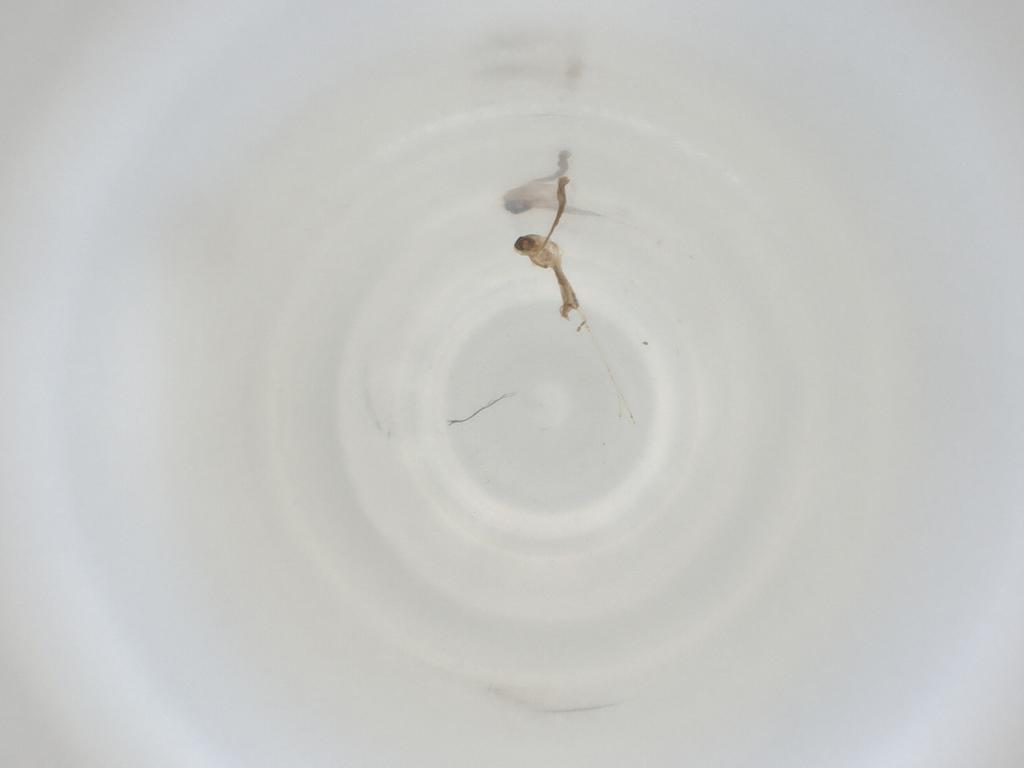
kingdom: Animalia
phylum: Arthropoda
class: Insecta
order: Diptera
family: Cecidomyiidae
